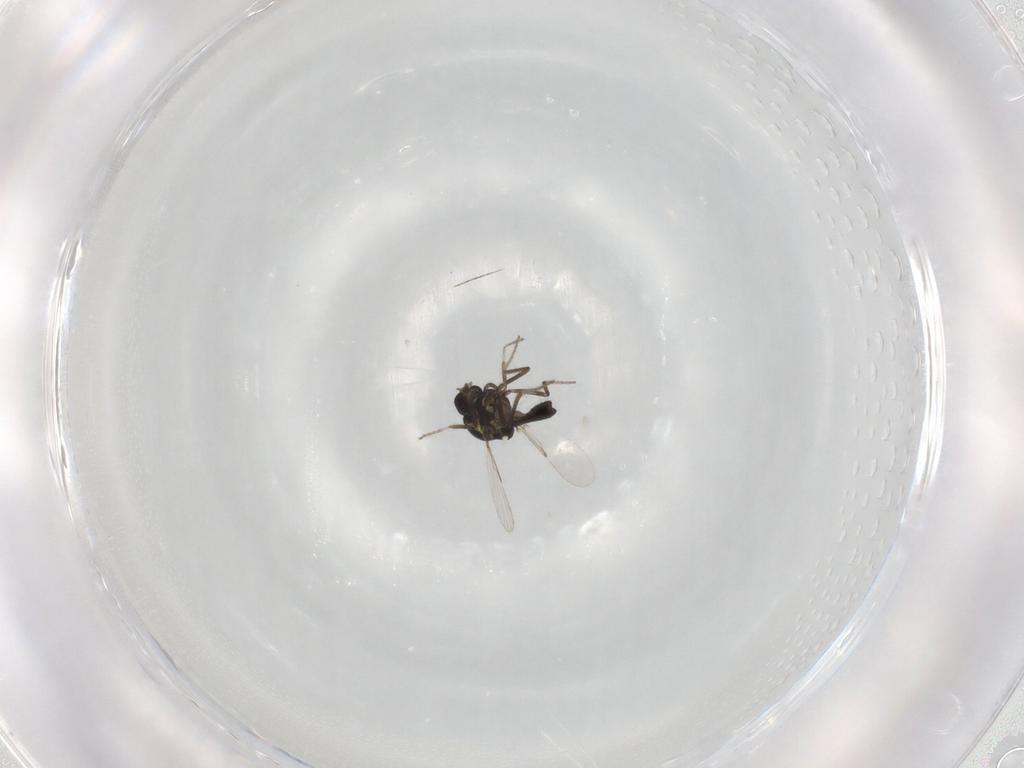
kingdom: Animalia
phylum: Arthropoda
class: Insecta
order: Diptera
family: Ceratopogonidae
